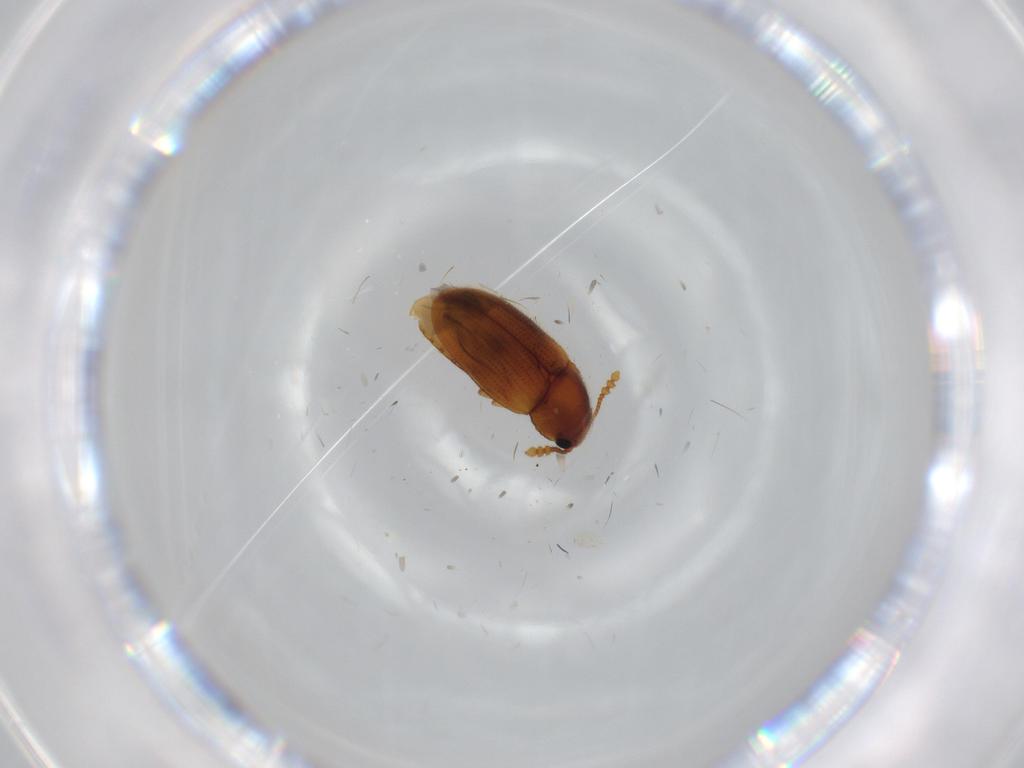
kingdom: Animalia
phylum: Arthropoda
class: Insecta
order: Coleoptera
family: Erotylidae
